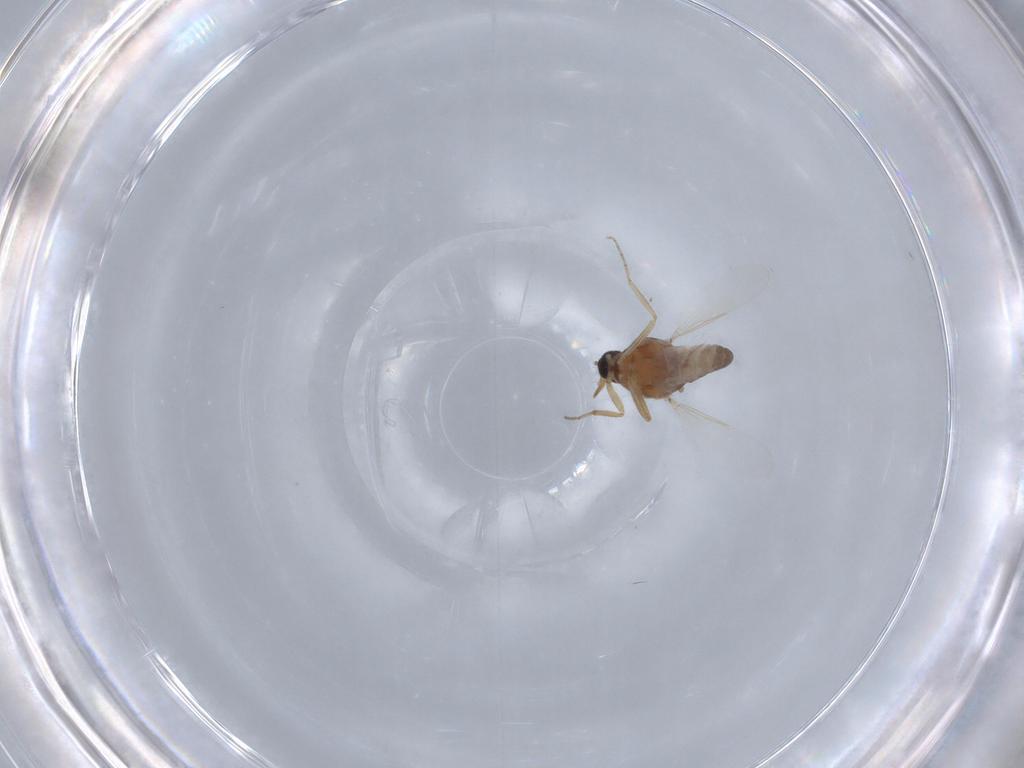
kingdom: Animalia
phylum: Arthropoda
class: Insecta
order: Diptera
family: Ceratopogonidae
